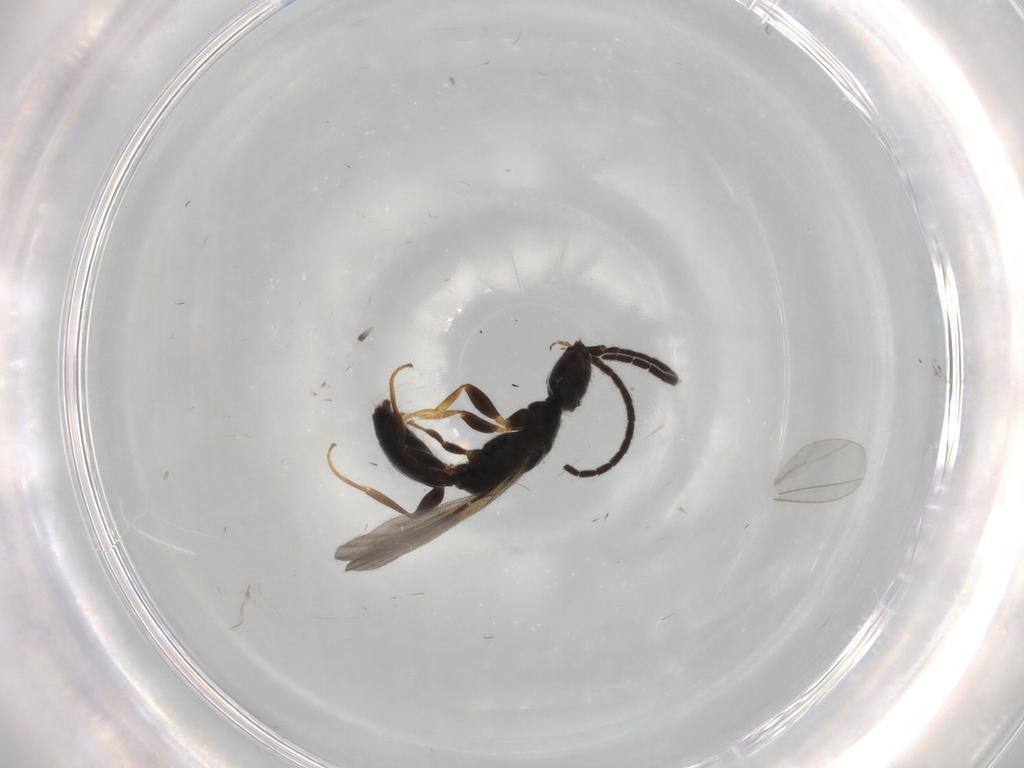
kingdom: Animalia
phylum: Arthropoda
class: Insecta
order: Hymenoptera
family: Bethylidae
